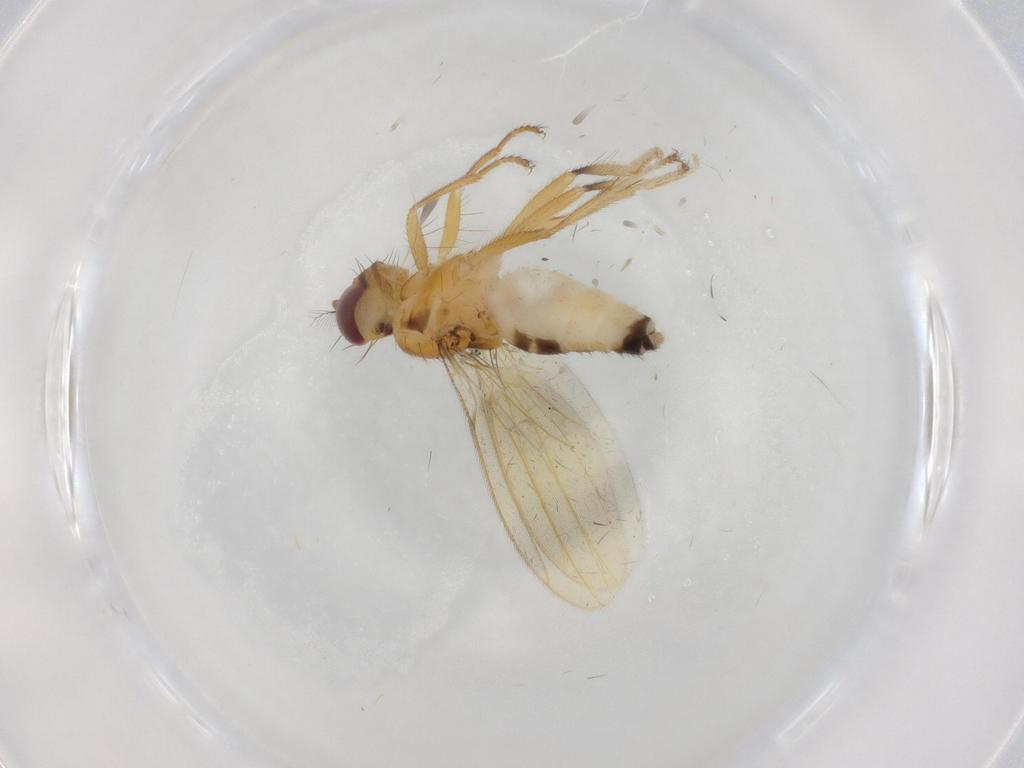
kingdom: Animalia
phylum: Arthropoda
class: Insecta
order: Diptera
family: Periscelididae
